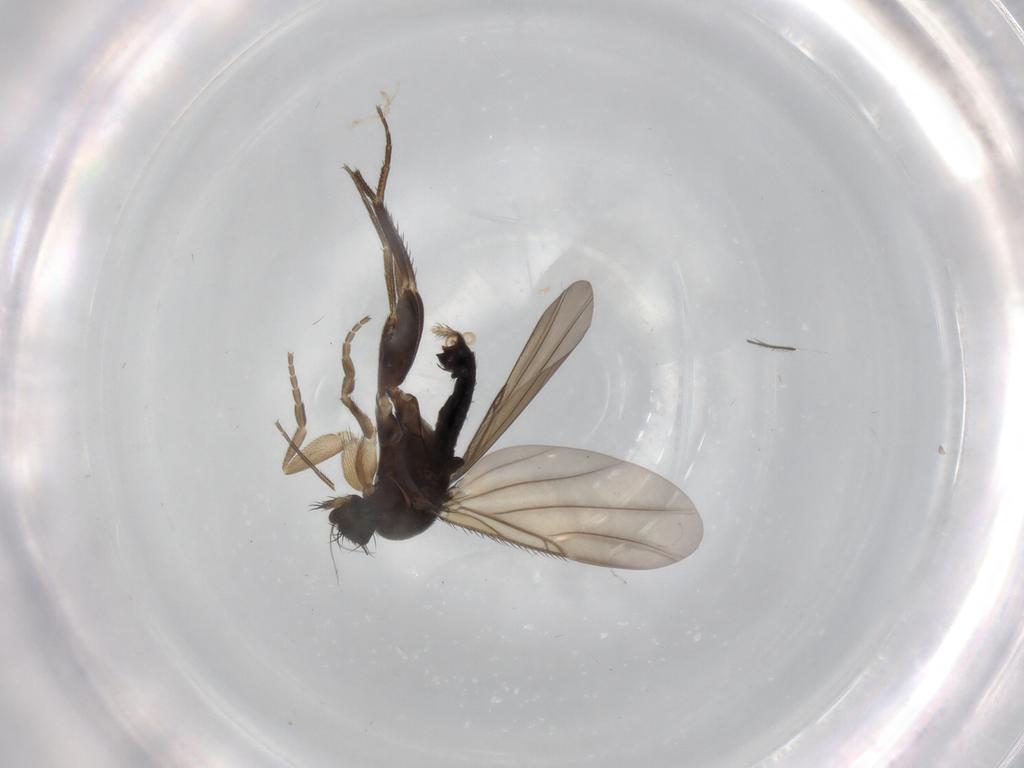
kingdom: Animalia
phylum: Arthropoda
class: Insecta
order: Diptera
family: Phoridae
